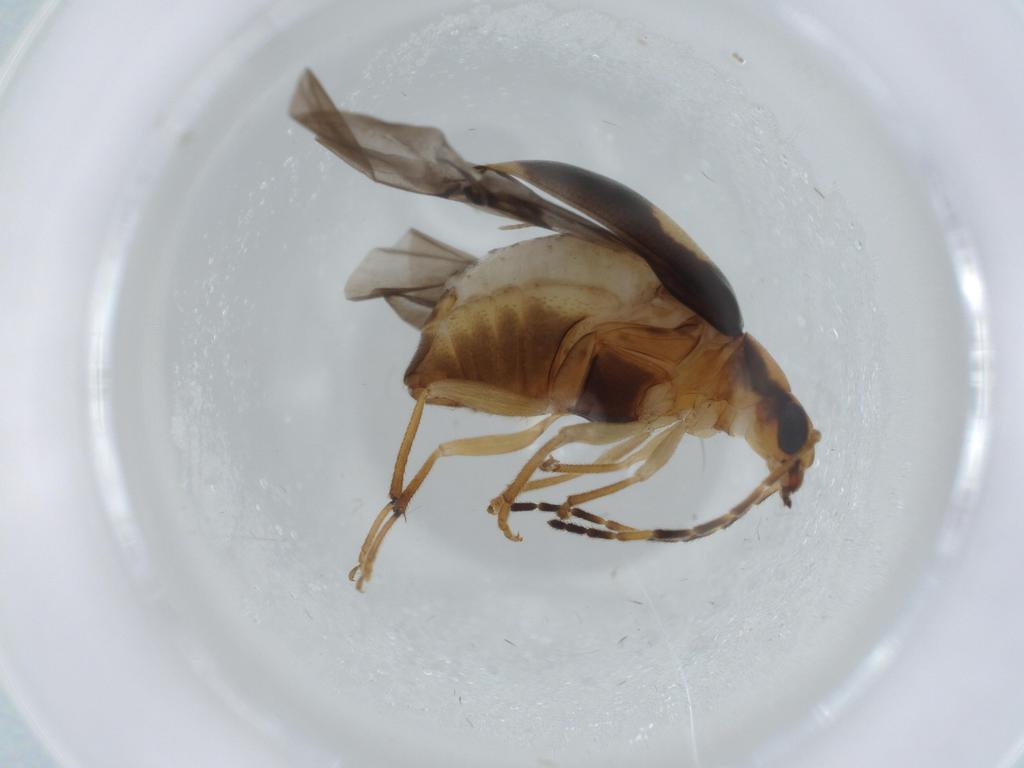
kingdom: Animalia
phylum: Arthropoda
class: Insecta
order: Coleoptera
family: Chrysomelidae
